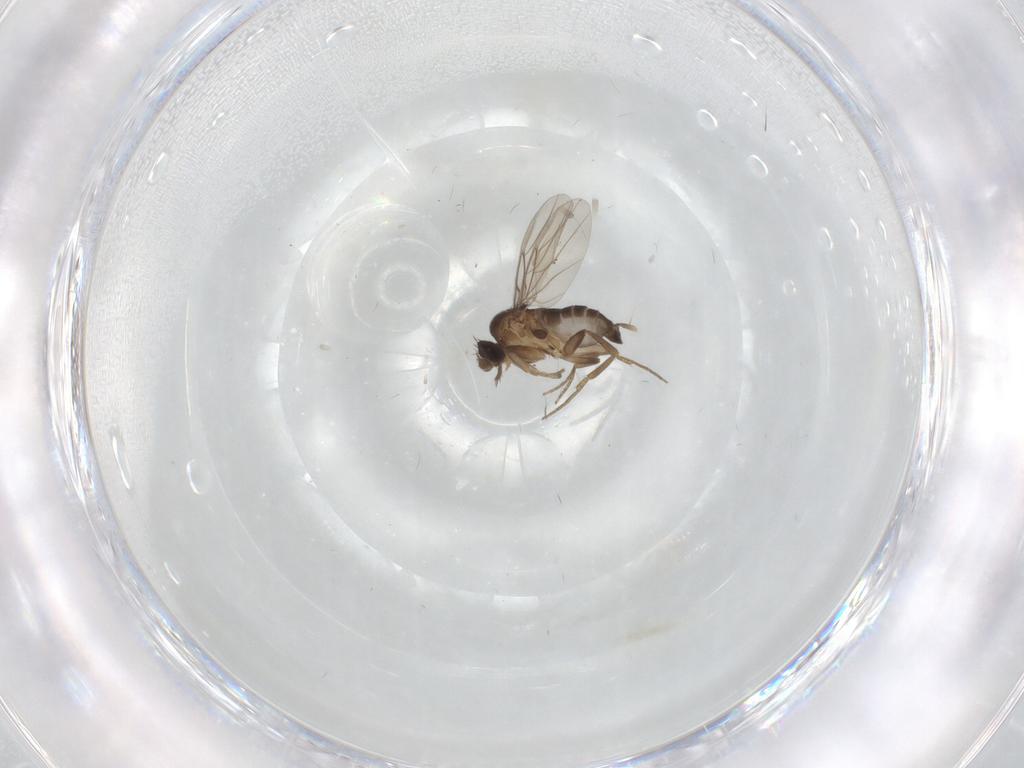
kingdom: Animalia
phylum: Arthropoda
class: Insecta
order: Diptera
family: Phoridae
